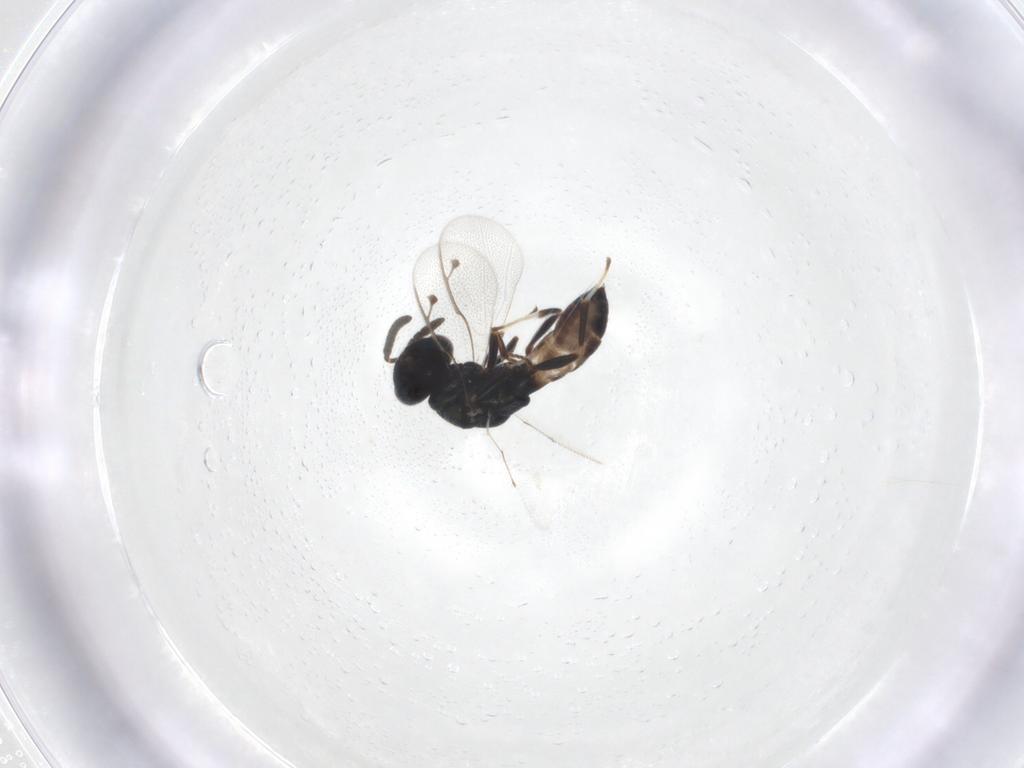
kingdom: Animalia
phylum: Arthropoda
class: Insecta
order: Hymenoptera
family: Pteromalidae
